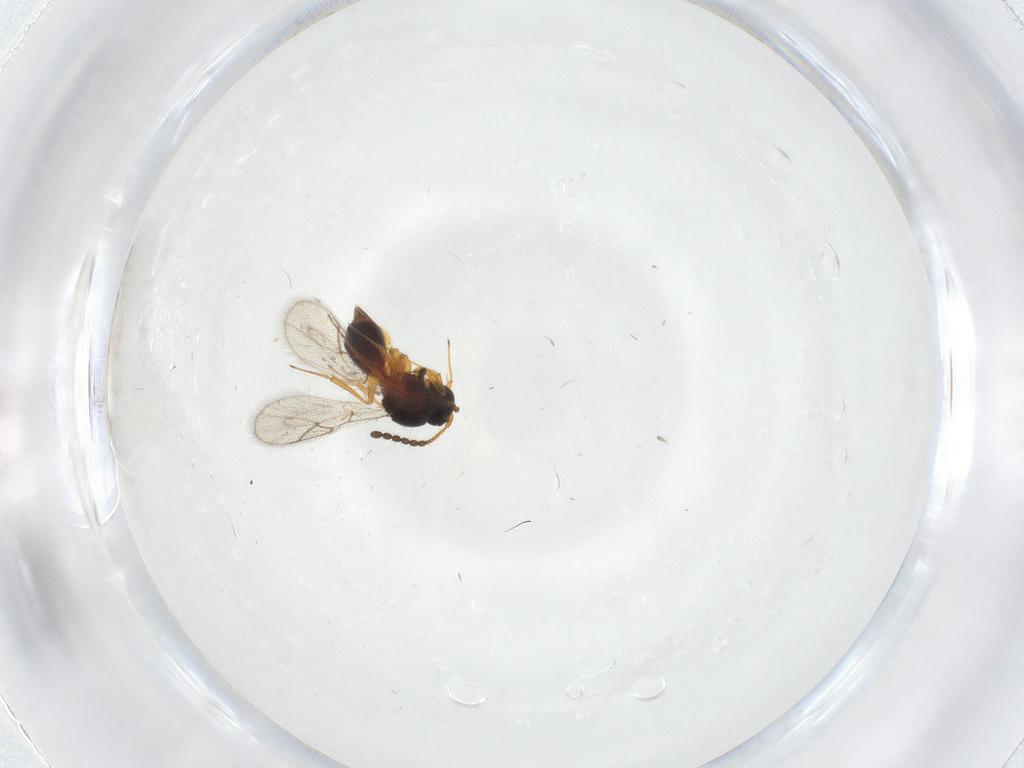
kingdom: Animalia
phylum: Arthropoda
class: Insecta
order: Hymenoptera
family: Figitidae
